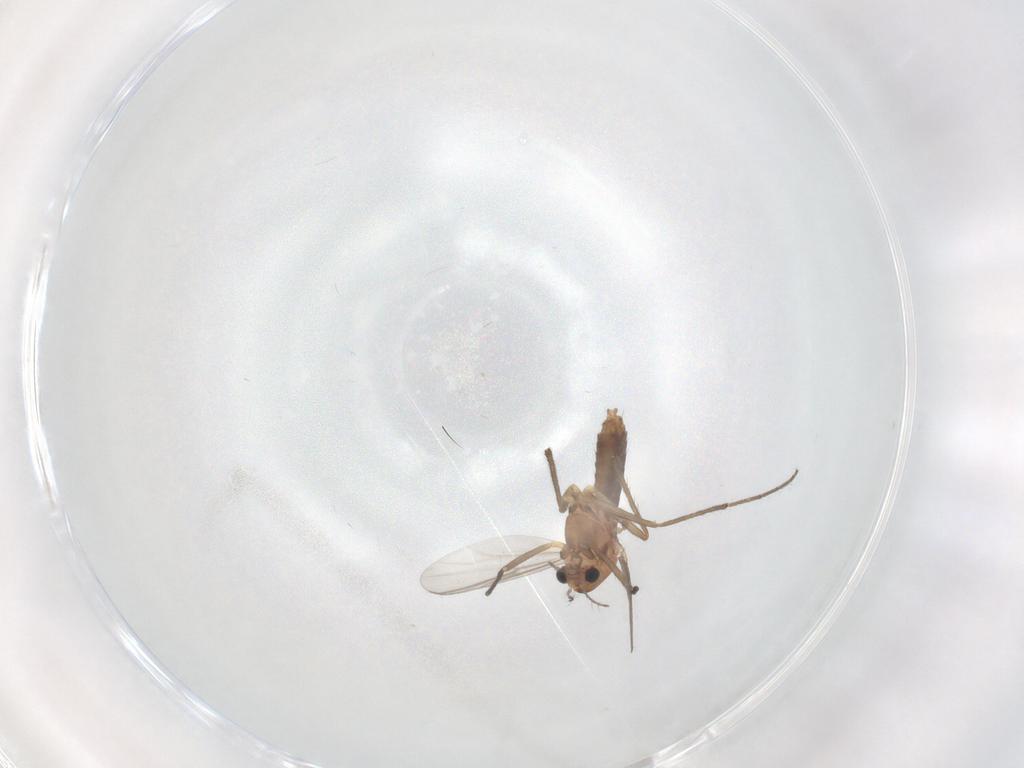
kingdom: Animalia
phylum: Arthropoda
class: Insecta
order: Diptera
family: Chironomidae
